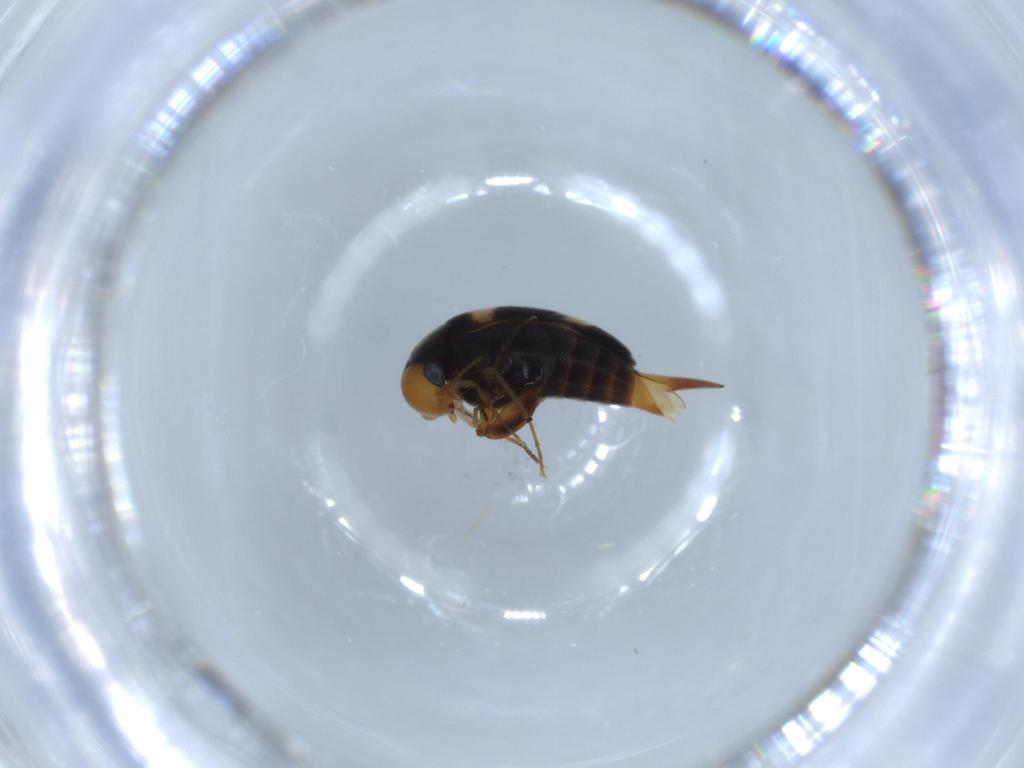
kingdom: Animalia
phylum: Arthropoda
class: Insecta
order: Coleoptera
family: Mordellidae
